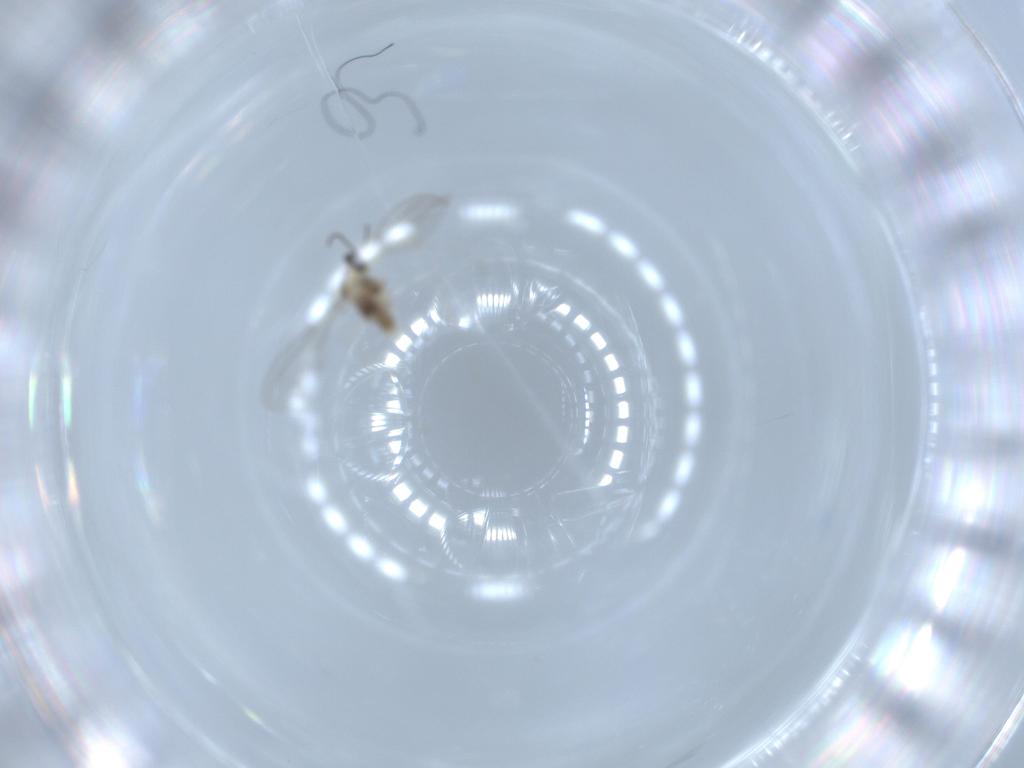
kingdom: Animalia
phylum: Arthropoda
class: Insecta
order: Diptera
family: Cecidomyiidae
